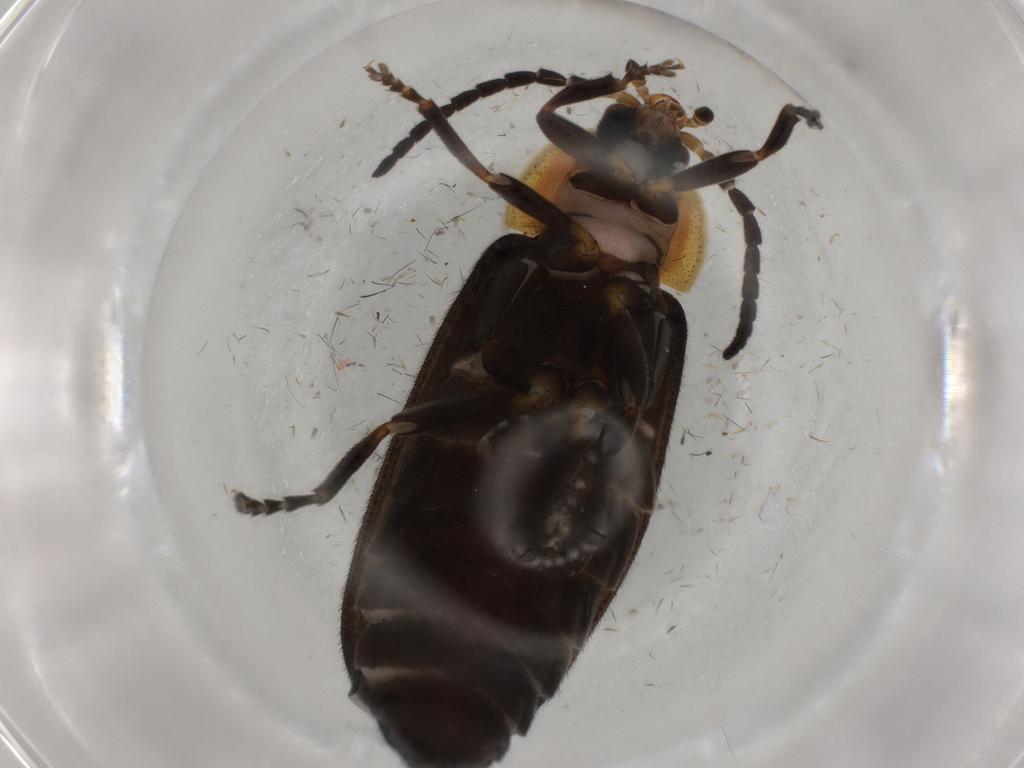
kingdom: Animalia
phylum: Arthropoda
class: Insecta
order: Coleoptera
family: Ptilodactylidae
